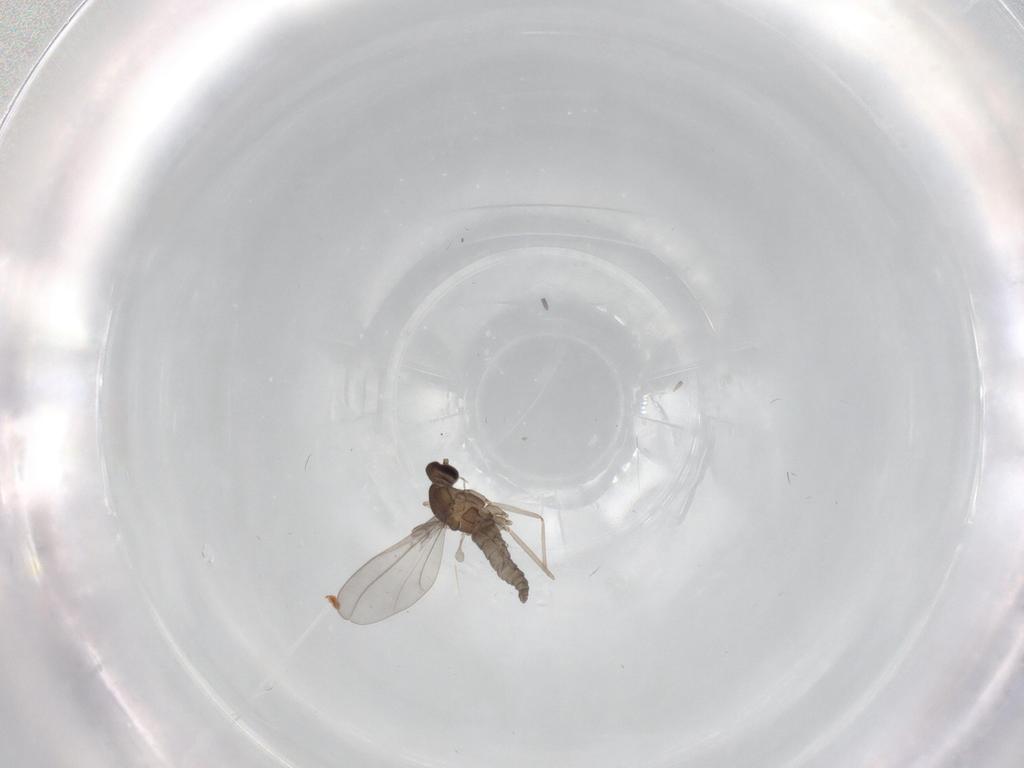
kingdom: Animalia
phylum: Arthropoda
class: Insecta
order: Diptera
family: Cecidomyiidae
